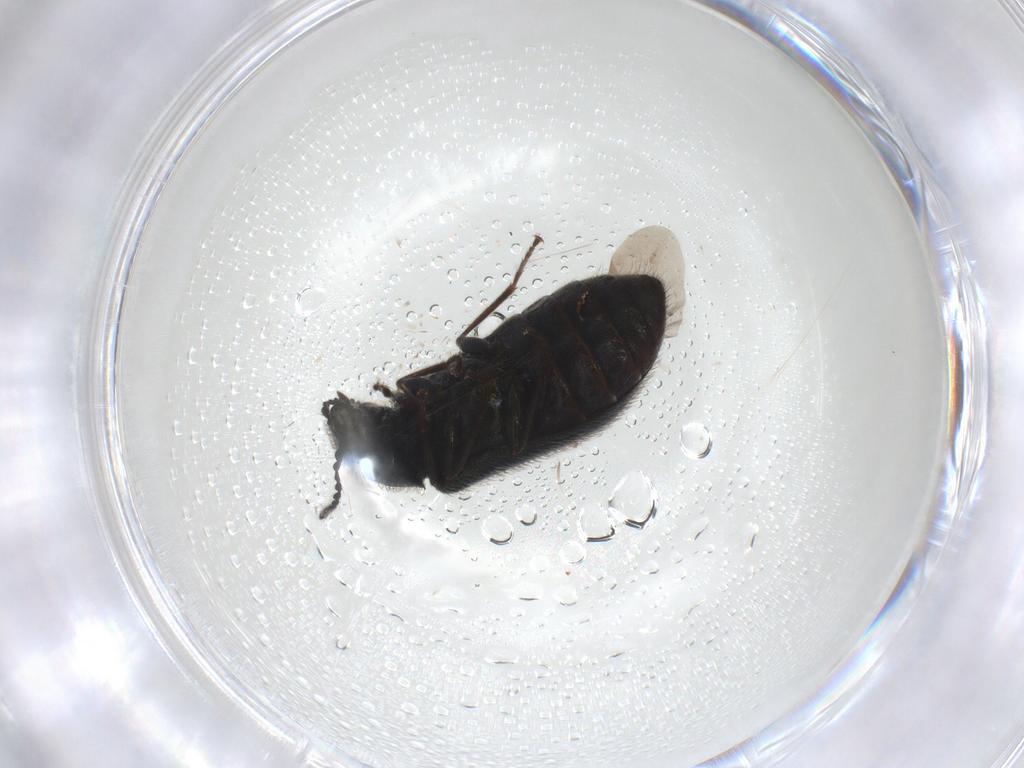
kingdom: Animalia
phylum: Arthropoda
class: Insecta
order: Coleoptera
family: Melyridae
